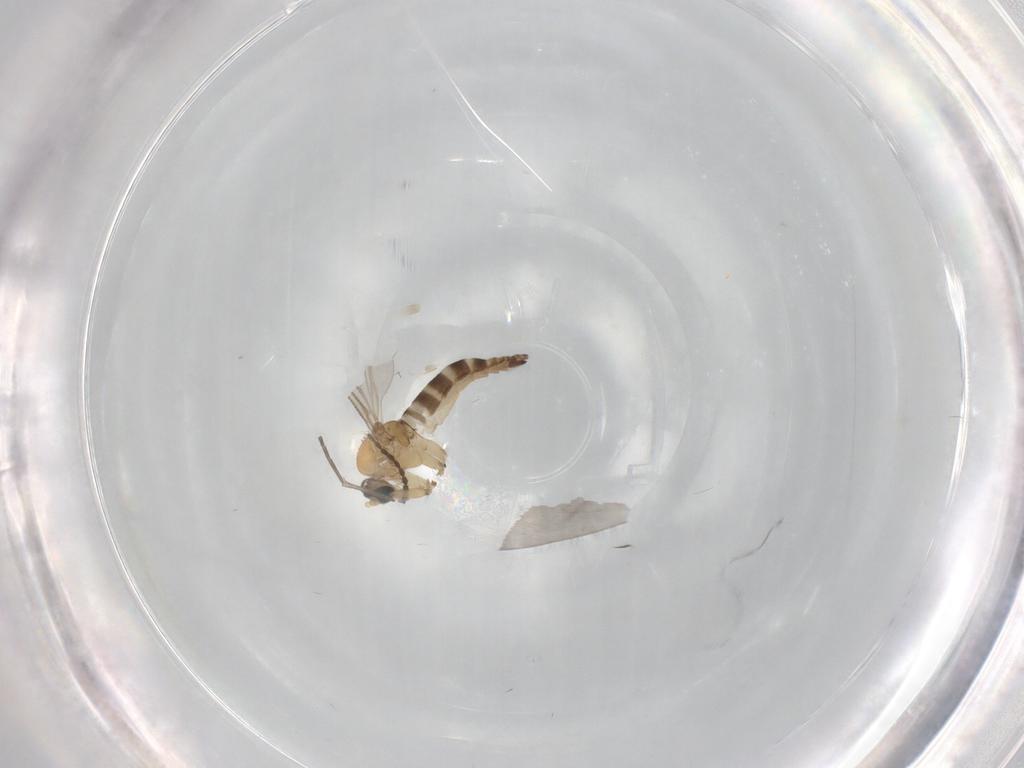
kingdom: Animalia
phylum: Arthropoda
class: Insecta
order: Diptera
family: Limoniidae
